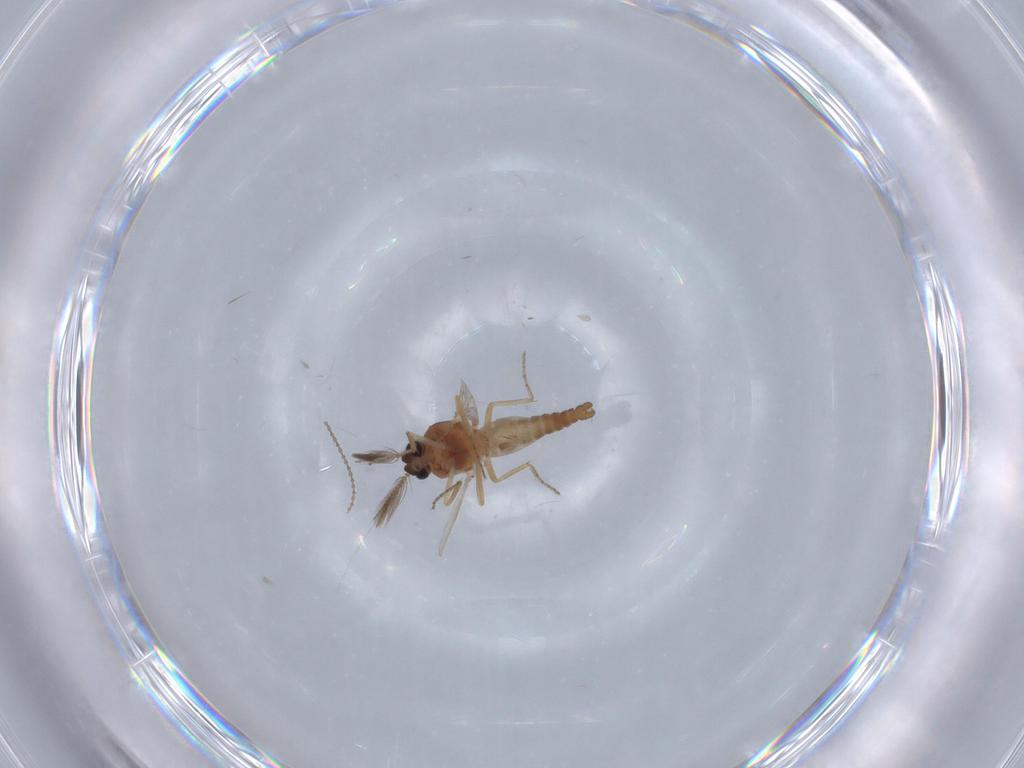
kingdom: Animalia
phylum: Arthropoda
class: Insecta
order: Diptera
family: Ceratopogonidae
